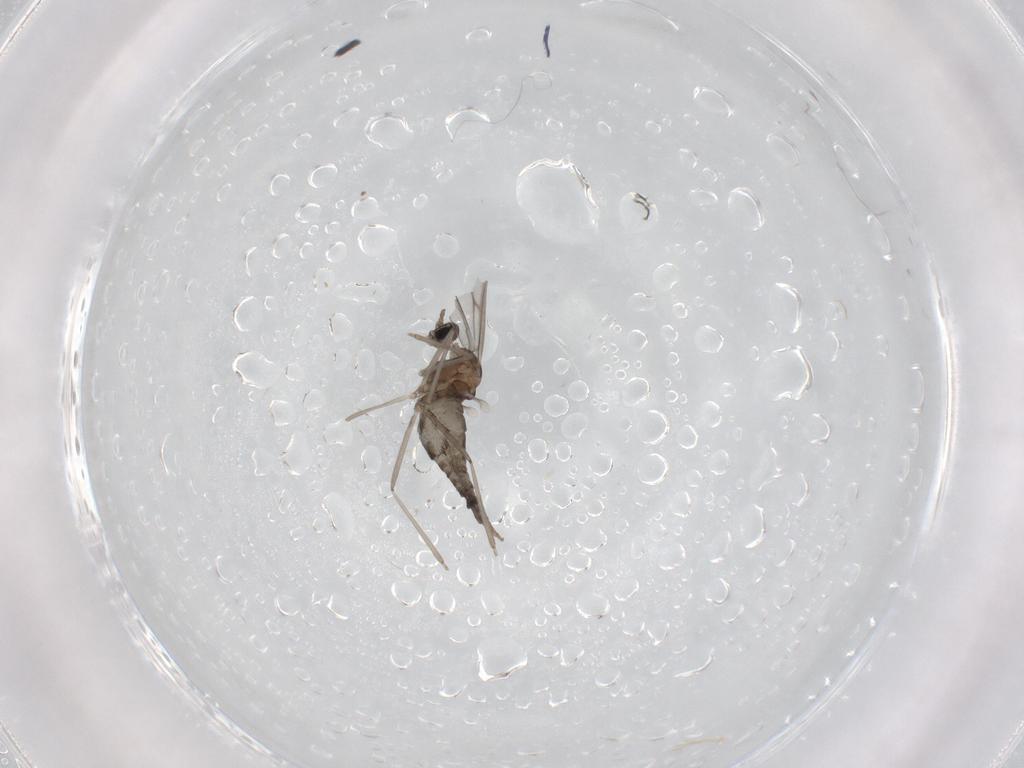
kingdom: Animalia
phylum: Arthropoda
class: Insecta
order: Diptera
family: Cecidomyiidae
